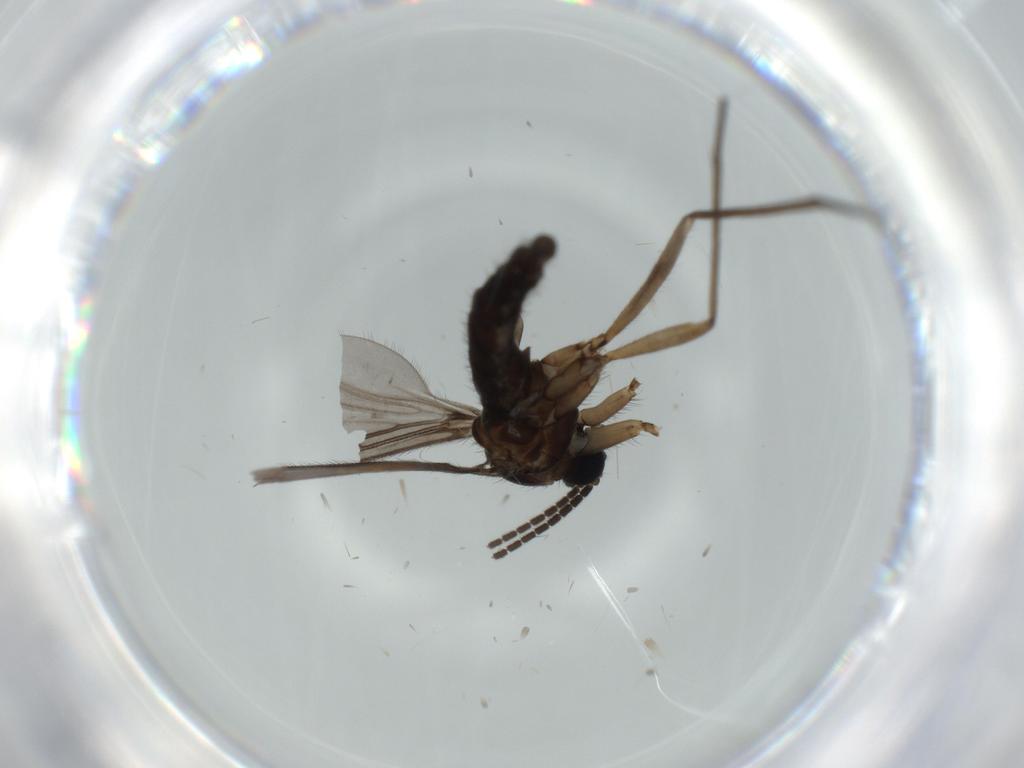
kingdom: Animalia
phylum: Arthropoda
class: Insecta
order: Diptera
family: Sciaridae
